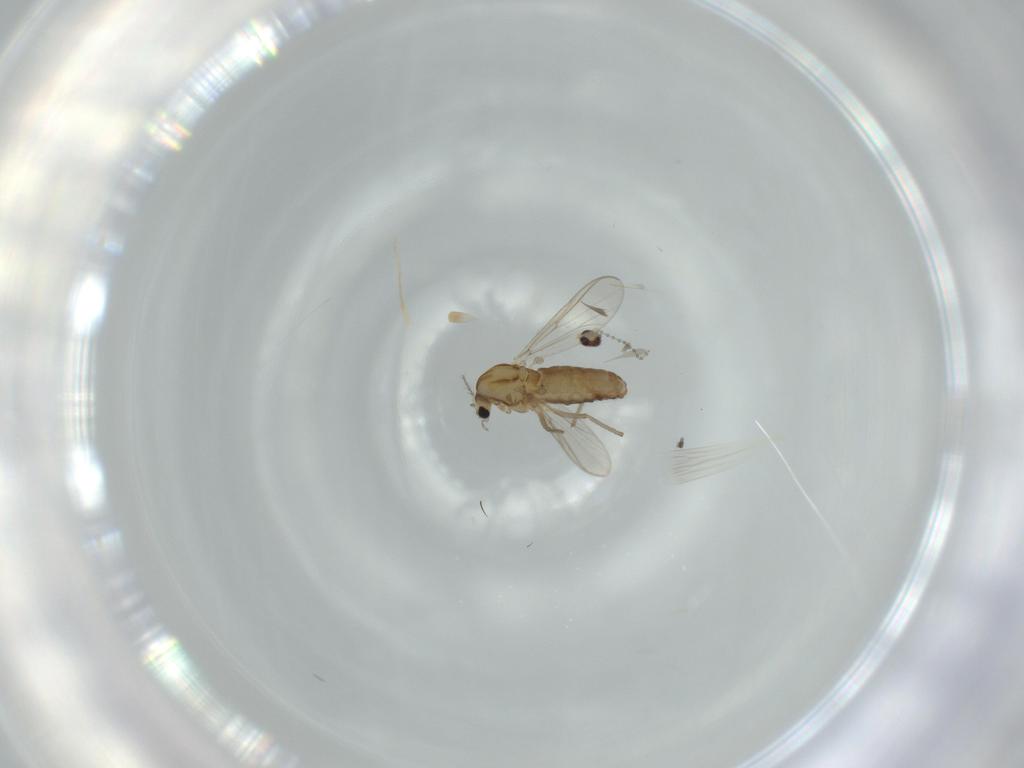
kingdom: Animalia
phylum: Arthropoda
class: Insecta
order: Diptera
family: Cecidomyiidae
